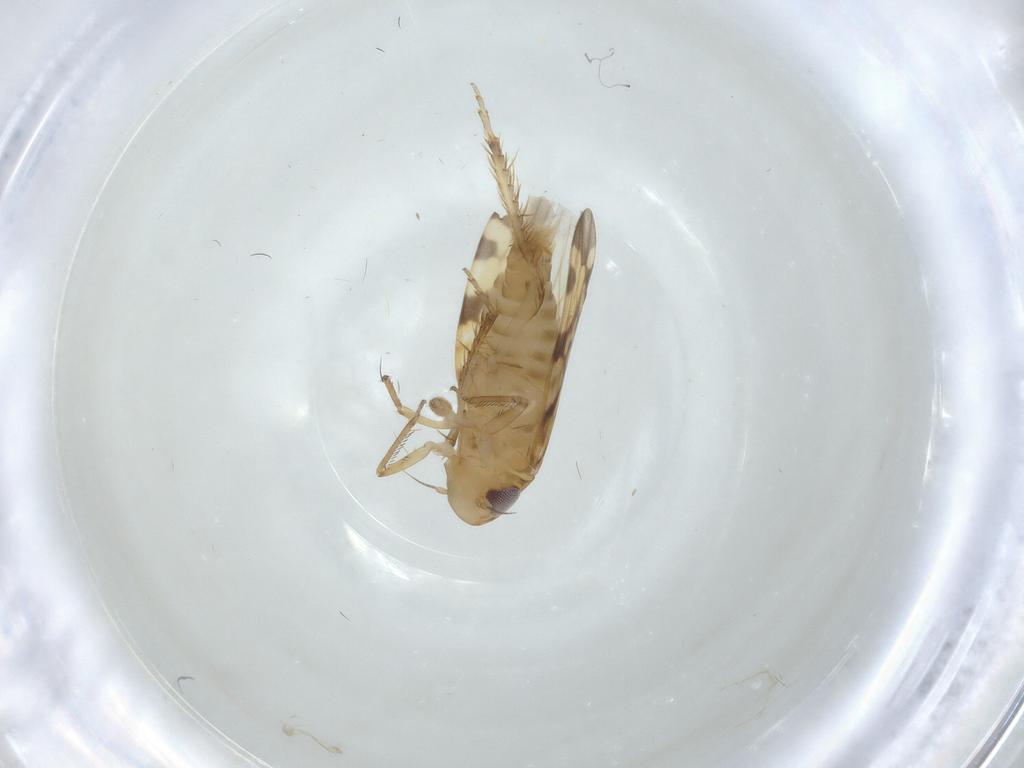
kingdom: Animalia
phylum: Arthropoda
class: Insecta
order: Hemiptera
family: Cicadellidae
